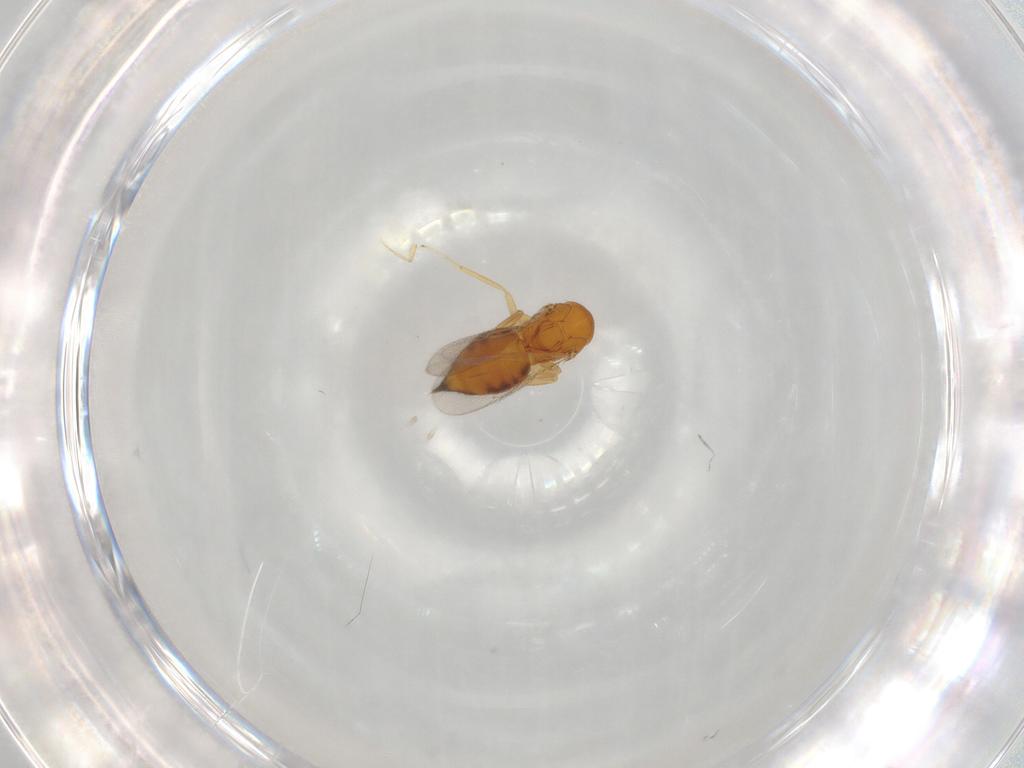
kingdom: Animalia
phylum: Arthropoda
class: Insecta
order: Hymenoptera
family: Eulophidae
